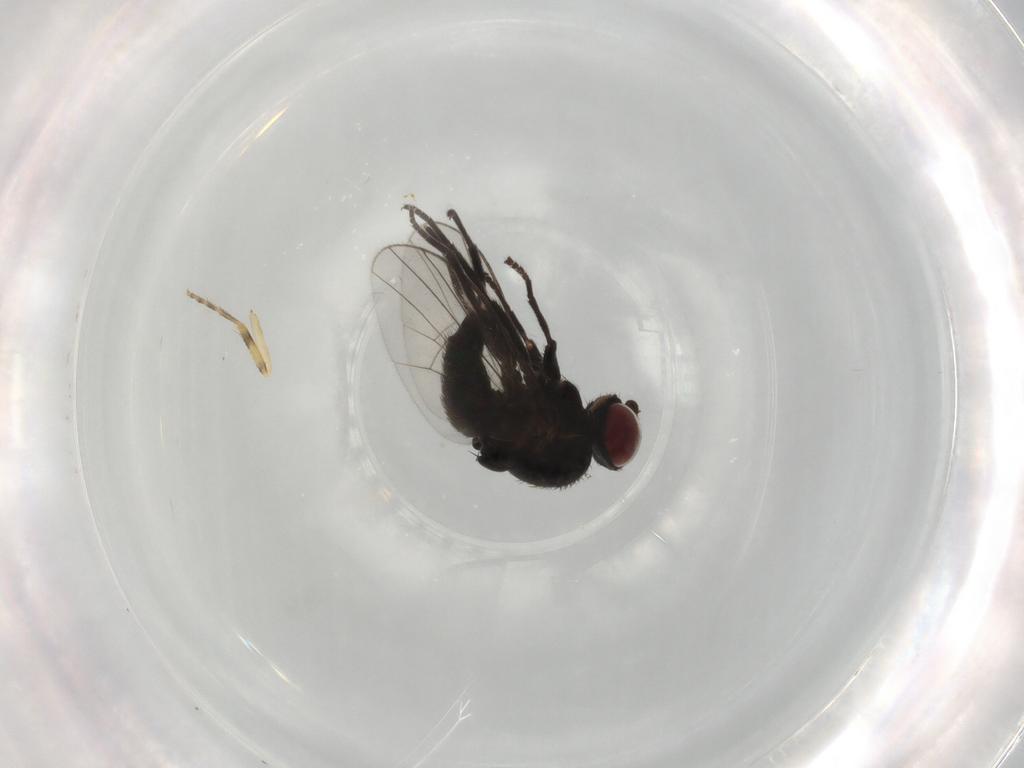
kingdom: Animalia
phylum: Arthropoda
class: Insecta
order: Diptera
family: Agromyzidae
